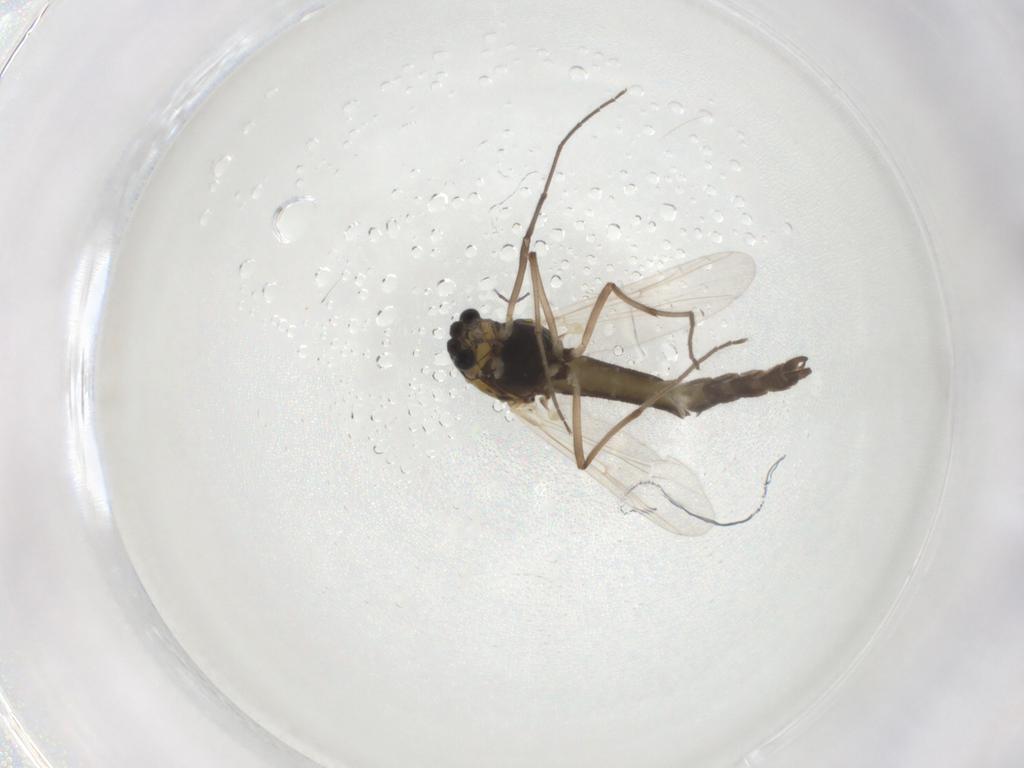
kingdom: Animalia
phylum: Arthropoda
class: Insecta
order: Diptera
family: Chironomidae
